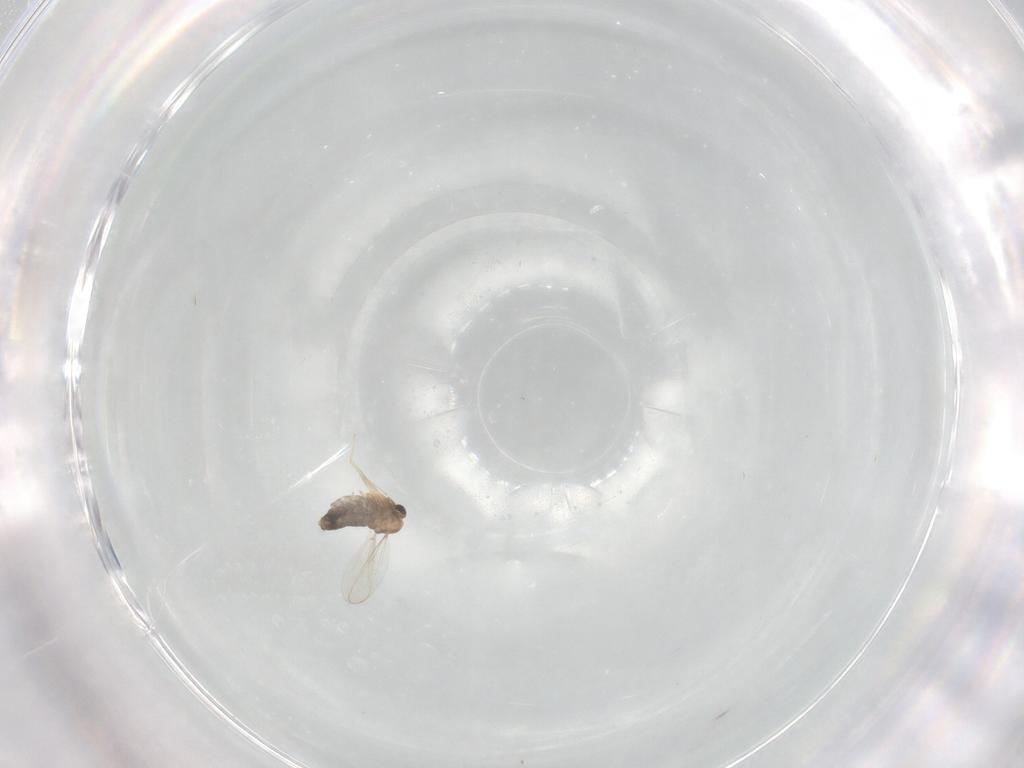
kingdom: Animalia
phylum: Arthropoda
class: Insecta
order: Diptera
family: Chironomidae
